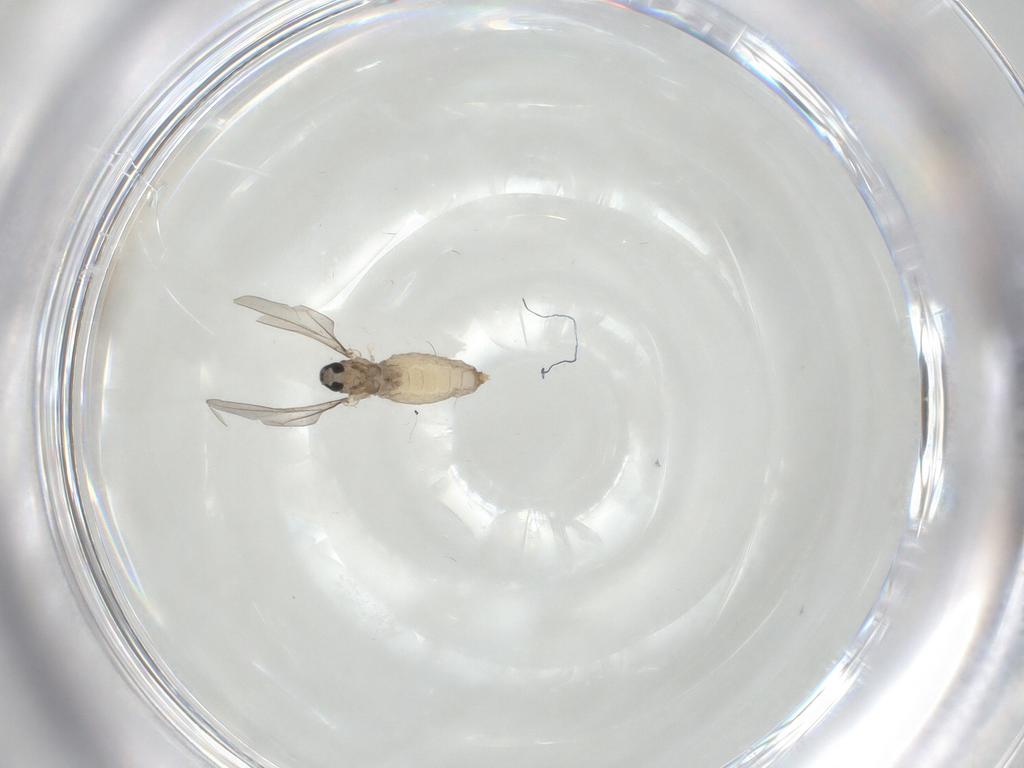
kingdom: Animalia
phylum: Arthropoda
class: Insecta
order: Diptera
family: Cecidomyiidae
